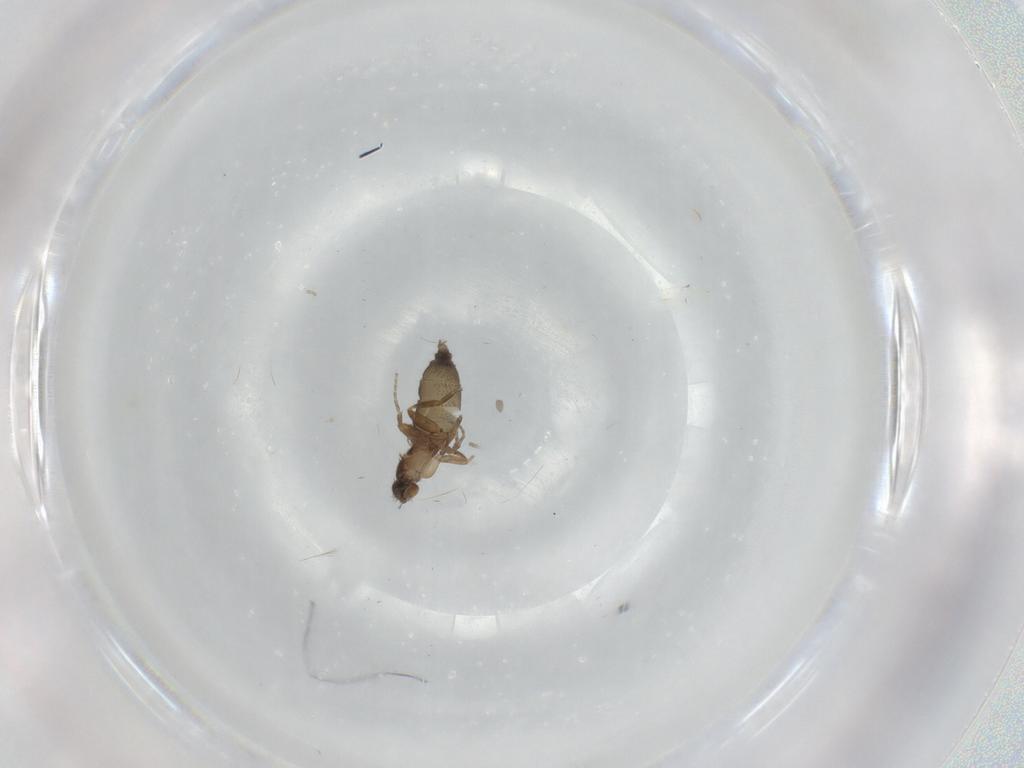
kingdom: Animalia
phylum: Arthropoda
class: Insecta
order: Diptera
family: Phoridae
